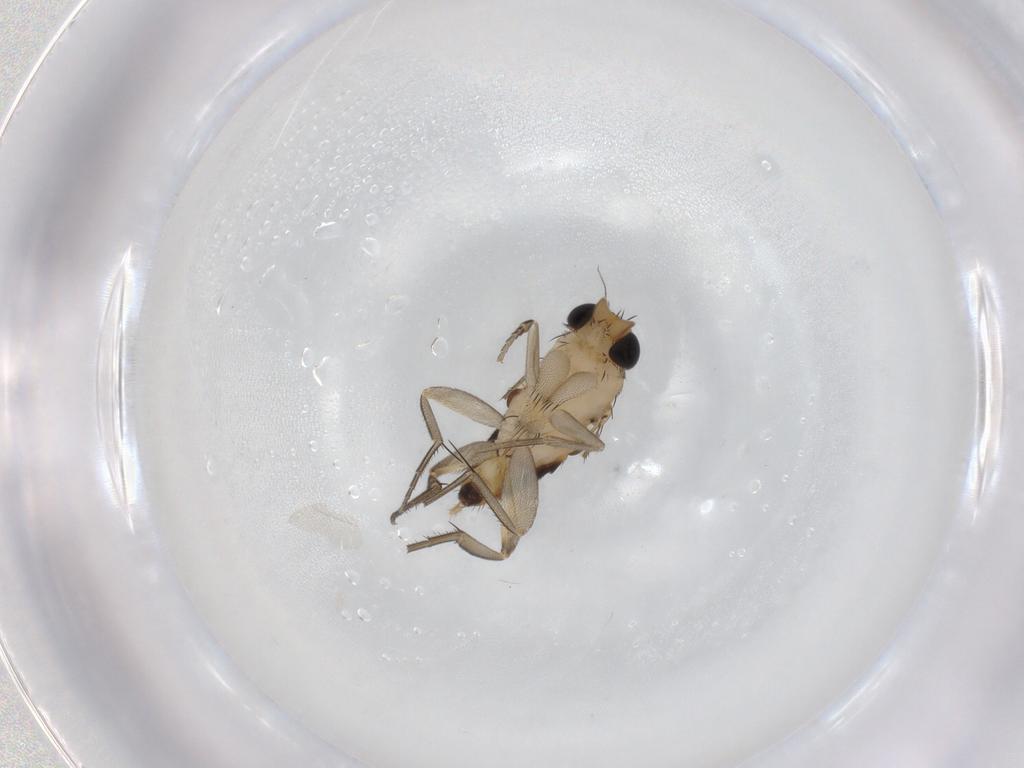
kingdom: Animalia
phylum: Arthropoda
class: Insecta
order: Diptera
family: Phoridae
